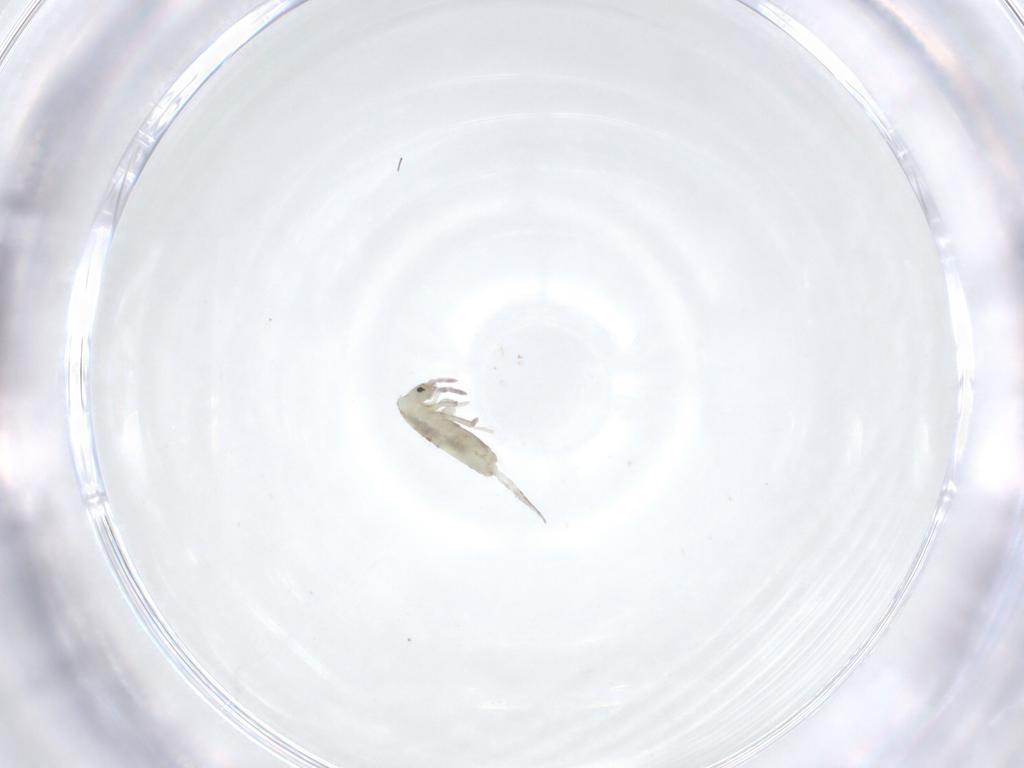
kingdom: Animalia
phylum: Arthropoda
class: Collembola
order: Entomobryomorpha
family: Entomobryidae
